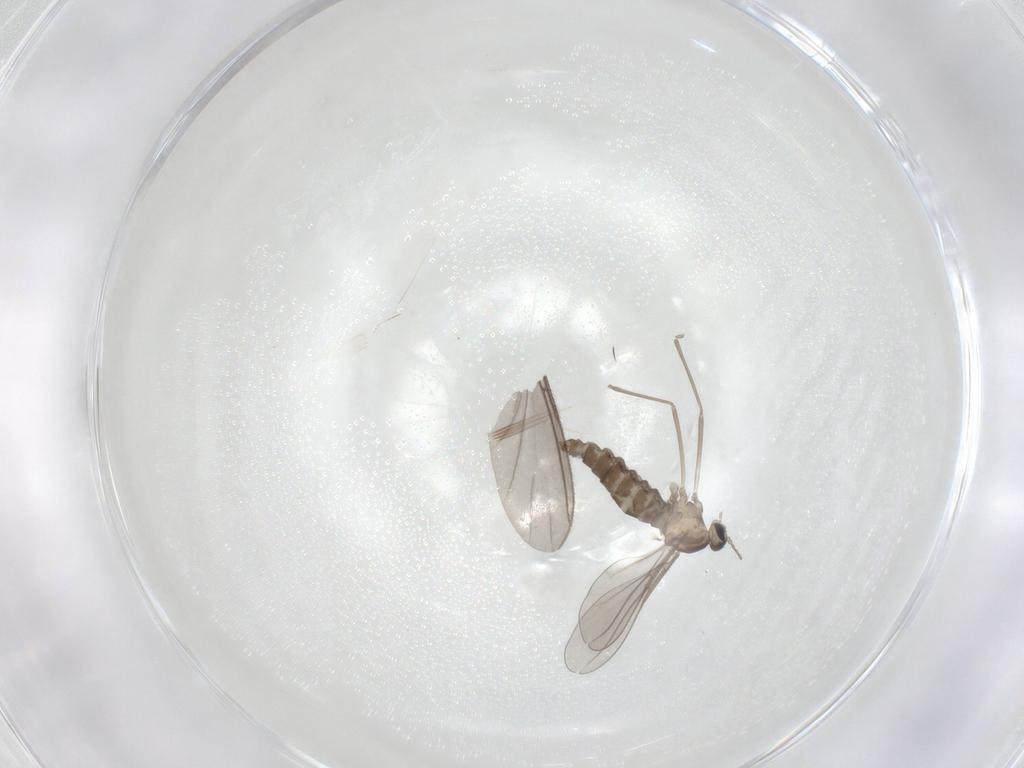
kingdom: Animalia
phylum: Arthropoda
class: Insecta
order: Diptera
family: Cecidomyiidae
